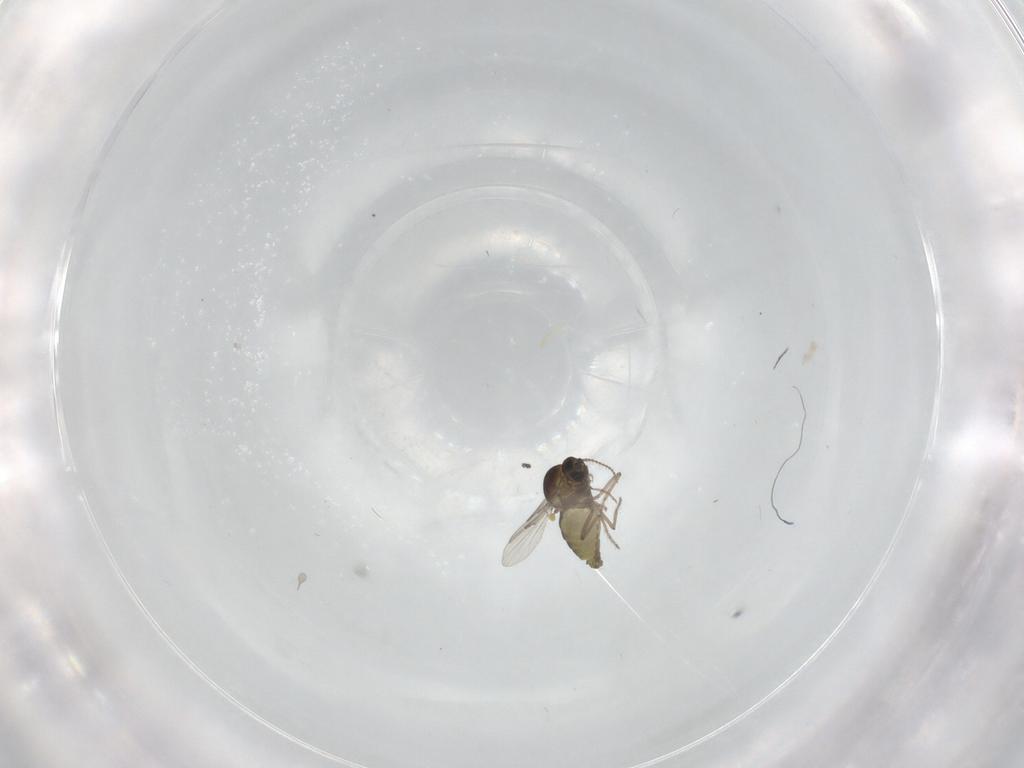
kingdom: Animalia
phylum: Arthropoda
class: Insecta
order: Diptera
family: Ceratopogonidae
